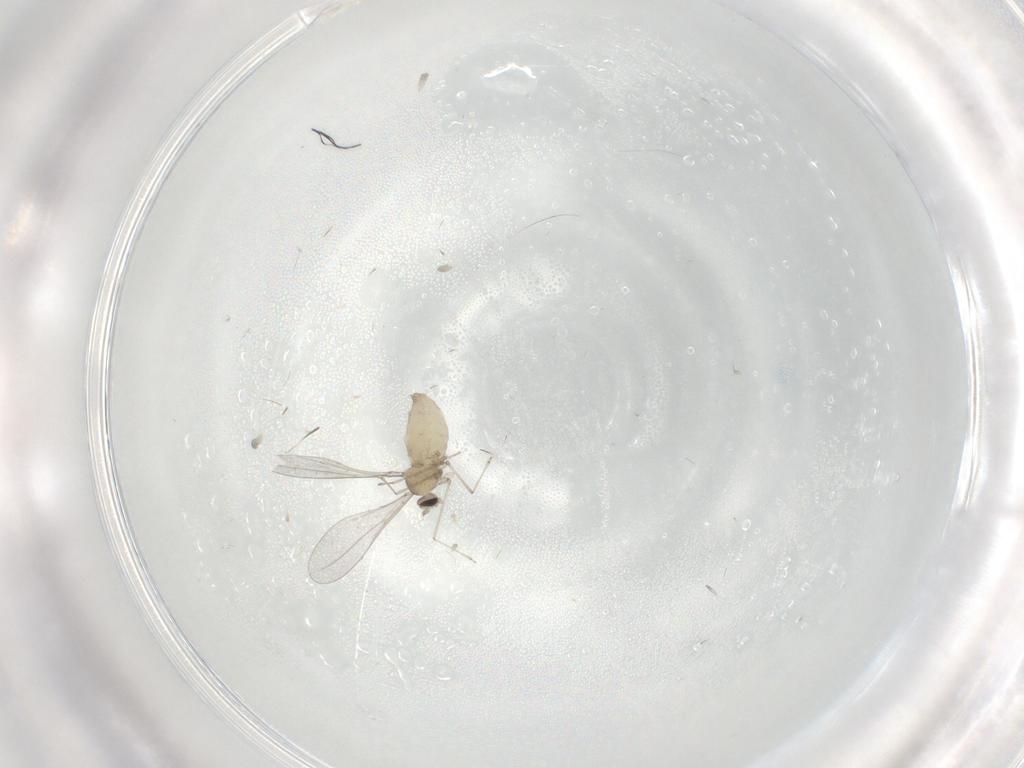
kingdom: Animalia
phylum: Arthropoda
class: Insecta
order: Diptera
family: Cecidomyiidae
